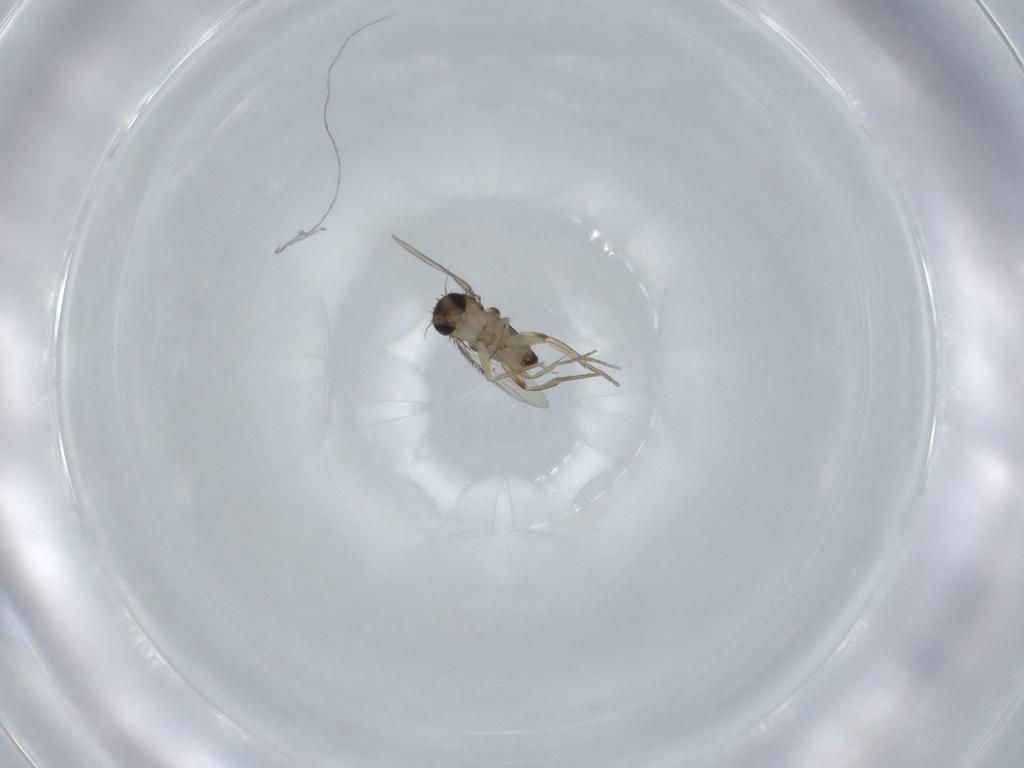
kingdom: Animalia
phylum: Arthropoda
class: Insecta
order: Diptera
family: Phoridae
